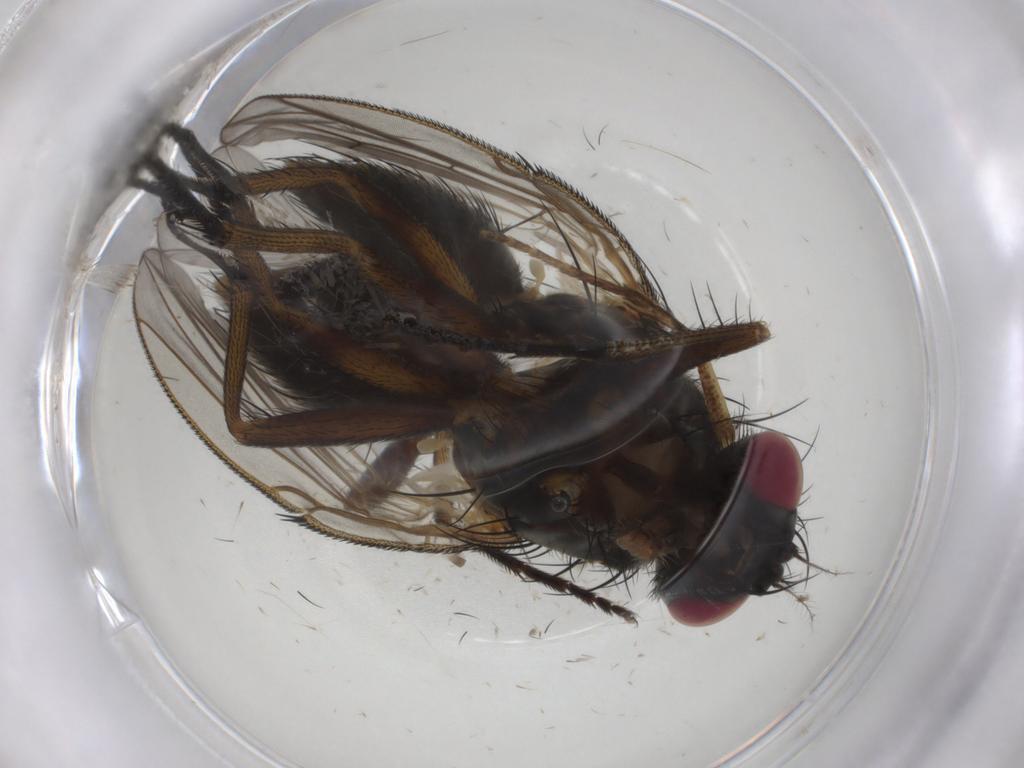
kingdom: Animalia
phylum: Arthropoda
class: Insecta
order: Diptera
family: Muscidae
